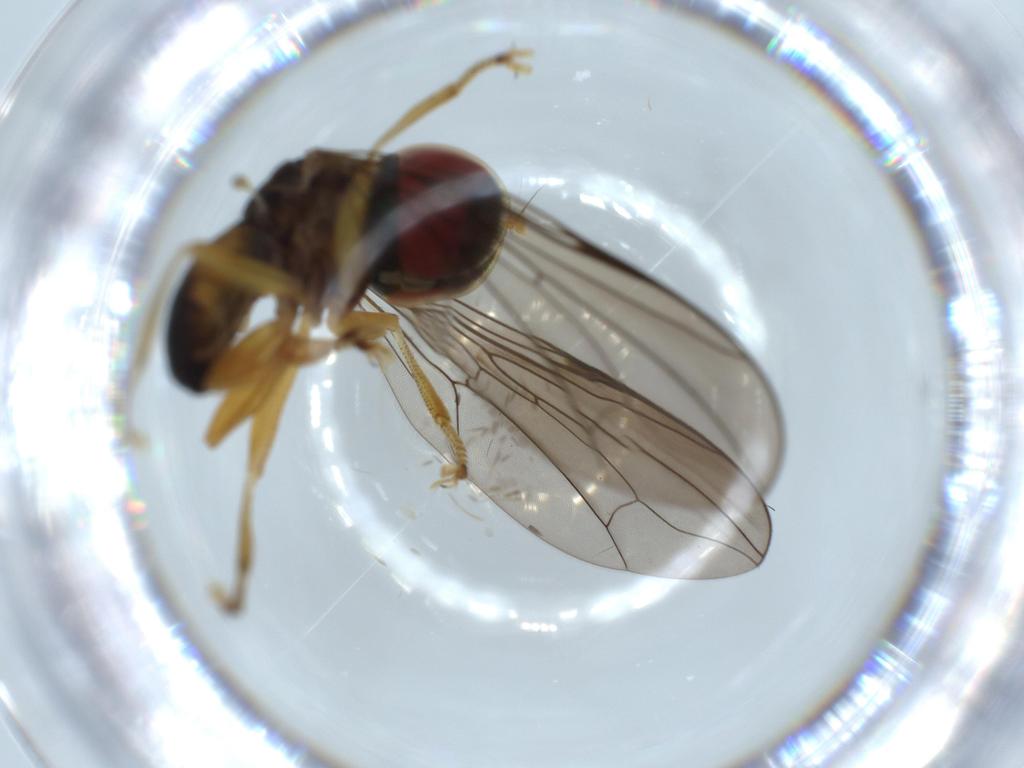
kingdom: Animalia
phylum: Arthropoda
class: Insecta
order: Diptera
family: Pipunculidae
